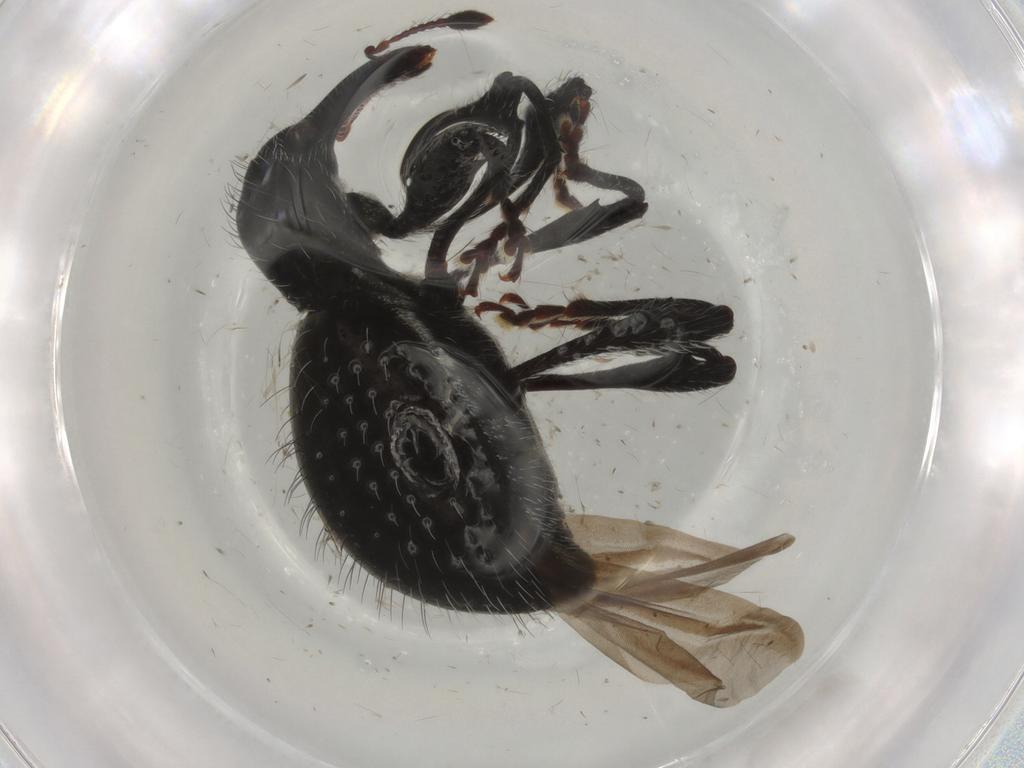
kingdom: Animalia
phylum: Arthropoda
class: Insecta
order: Coleoptera
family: Curculionidae
